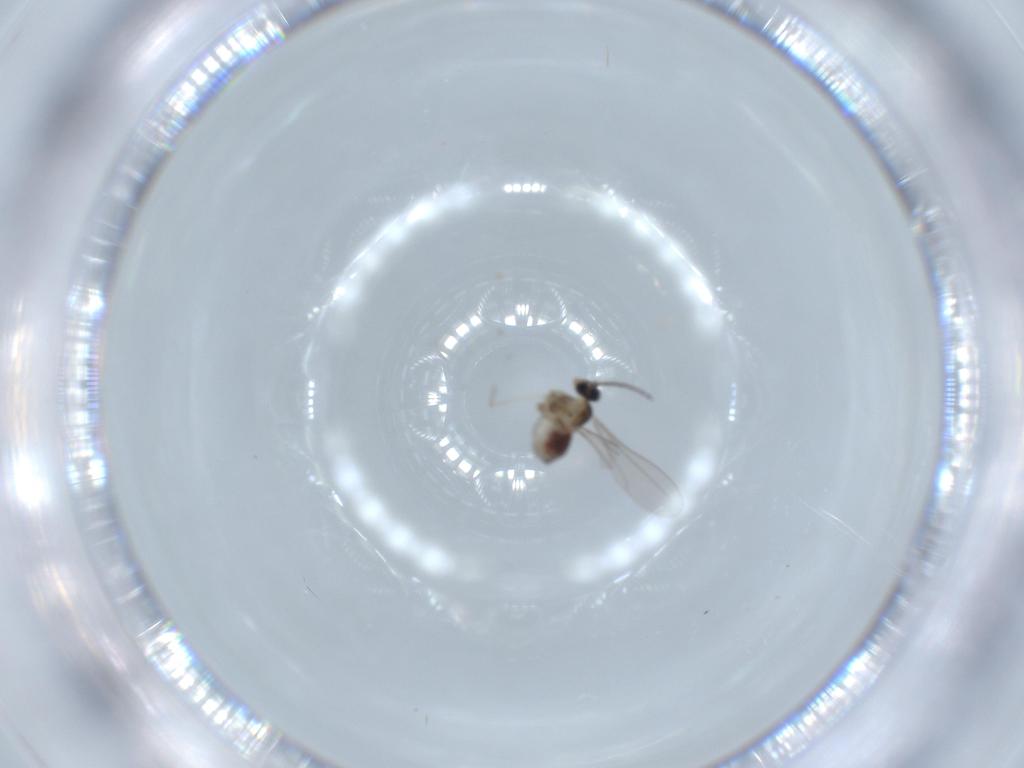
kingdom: Animalia
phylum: Arthropoda
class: Insecta
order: Diptera
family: Cecidomyiidae
